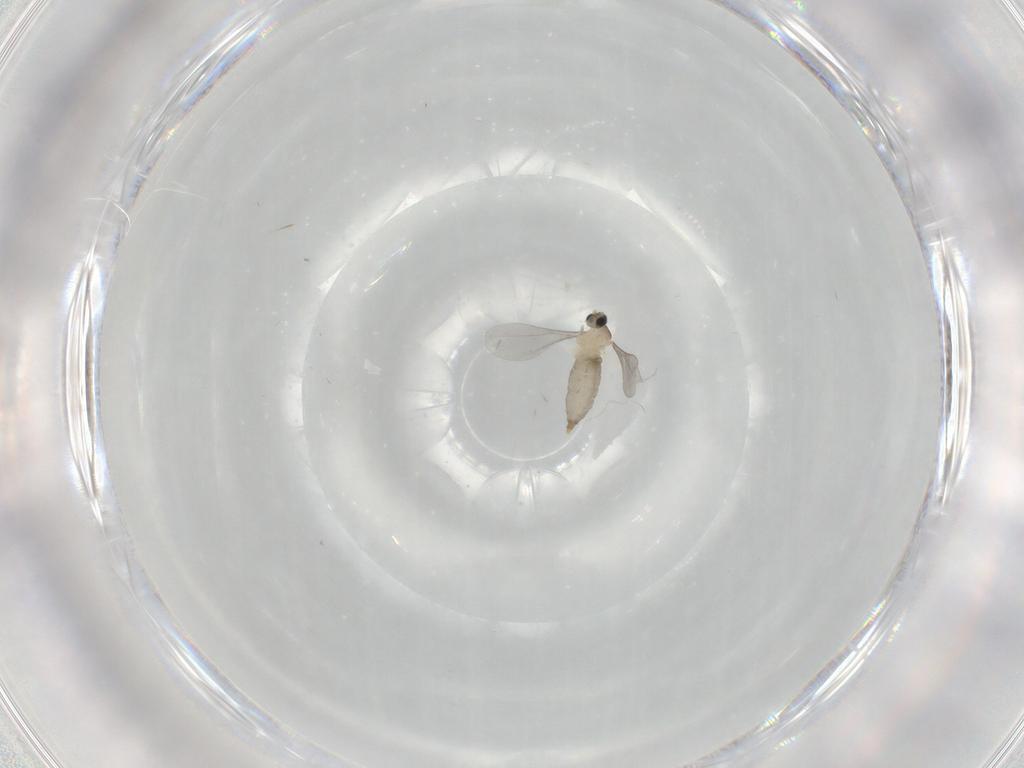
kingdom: Animalia
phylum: Arthropoda
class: Insecta
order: Diptera
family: Cecidomyiidae
